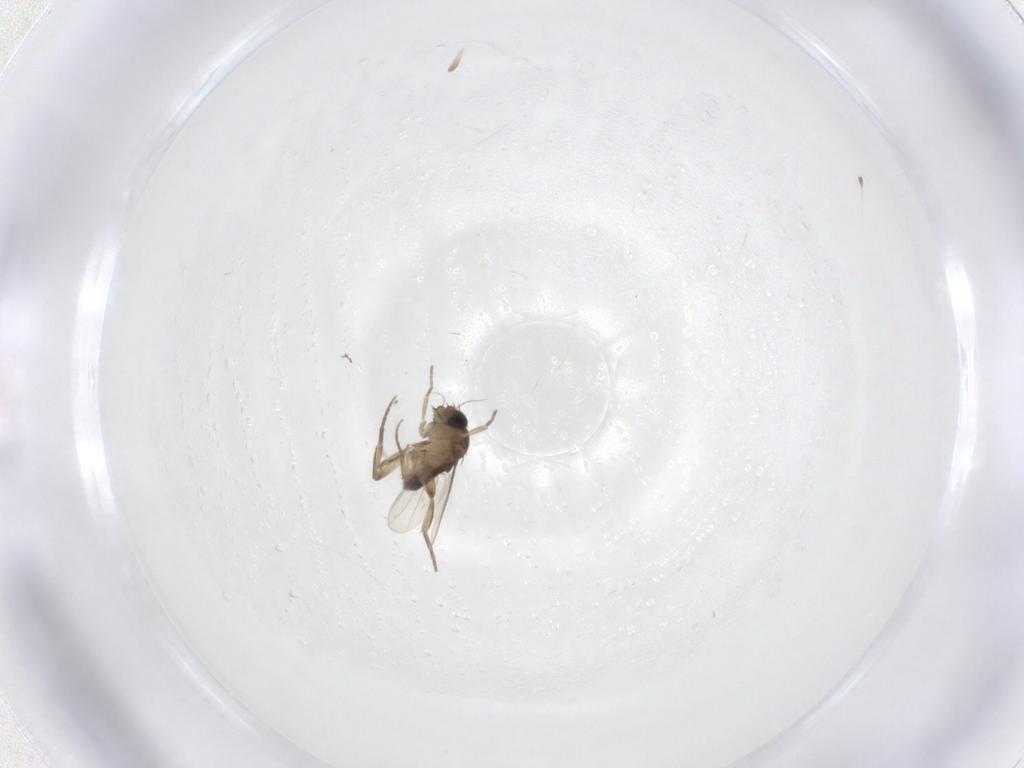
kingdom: Animalia
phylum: Arthropoda
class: Insecta
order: Diptera
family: Phoridae
